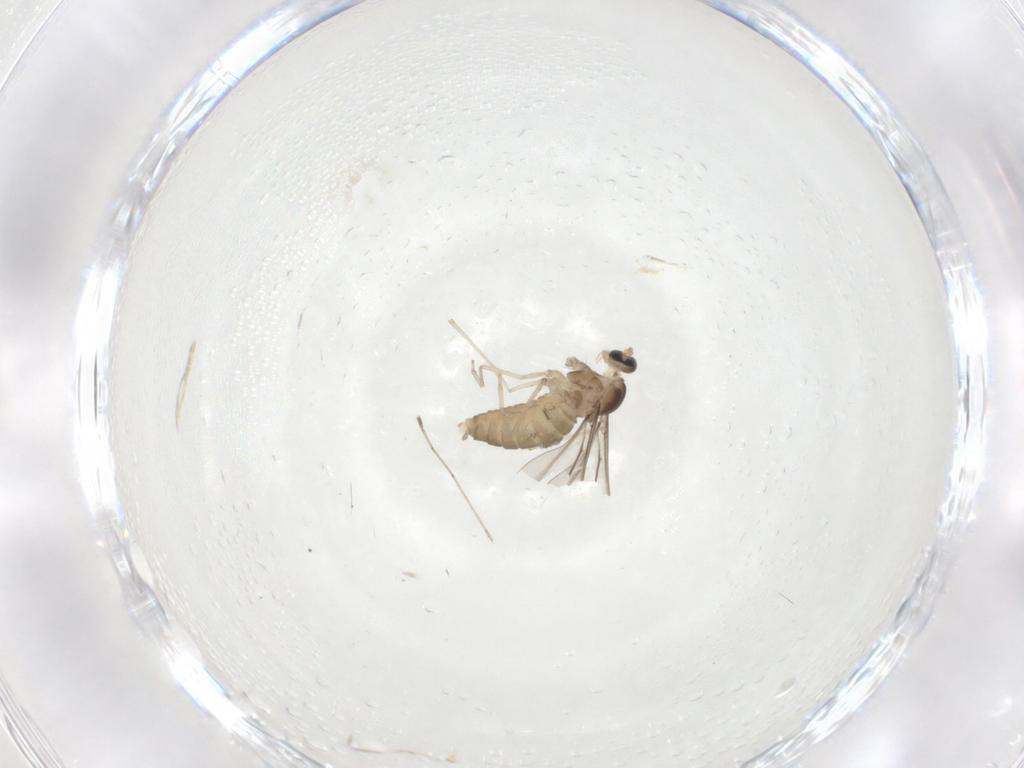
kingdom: Animalia
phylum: Arthropoda
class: Insecta
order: Diptera
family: Cecidomyiidae
